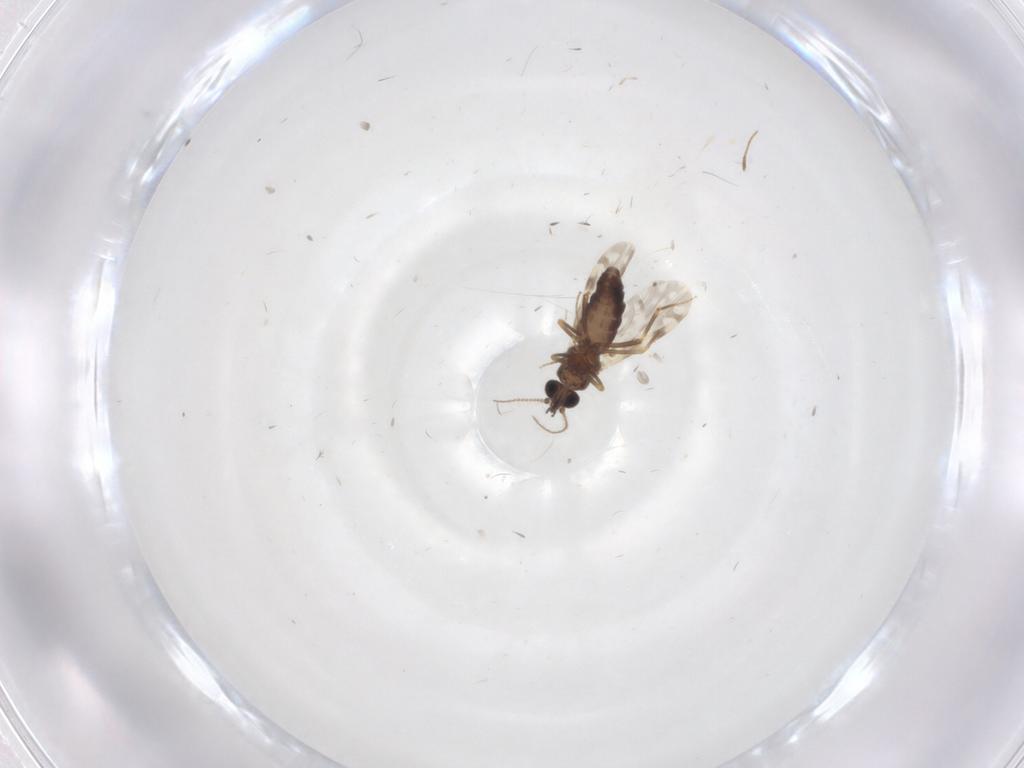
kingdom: Animalia
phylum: Arthropoda
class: Insecta
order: Diptera
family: Ceratopogonidae
